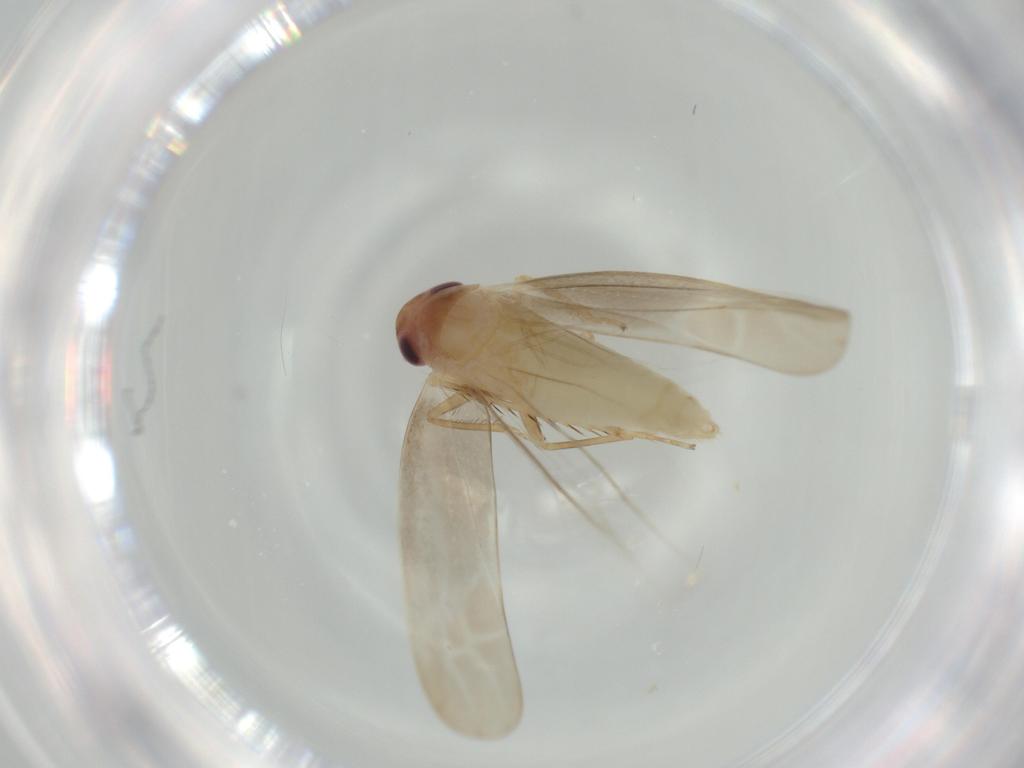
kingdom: Animalia
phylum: Arthropoda
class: Insecta
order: Hemiptera
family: Cicadellidae
